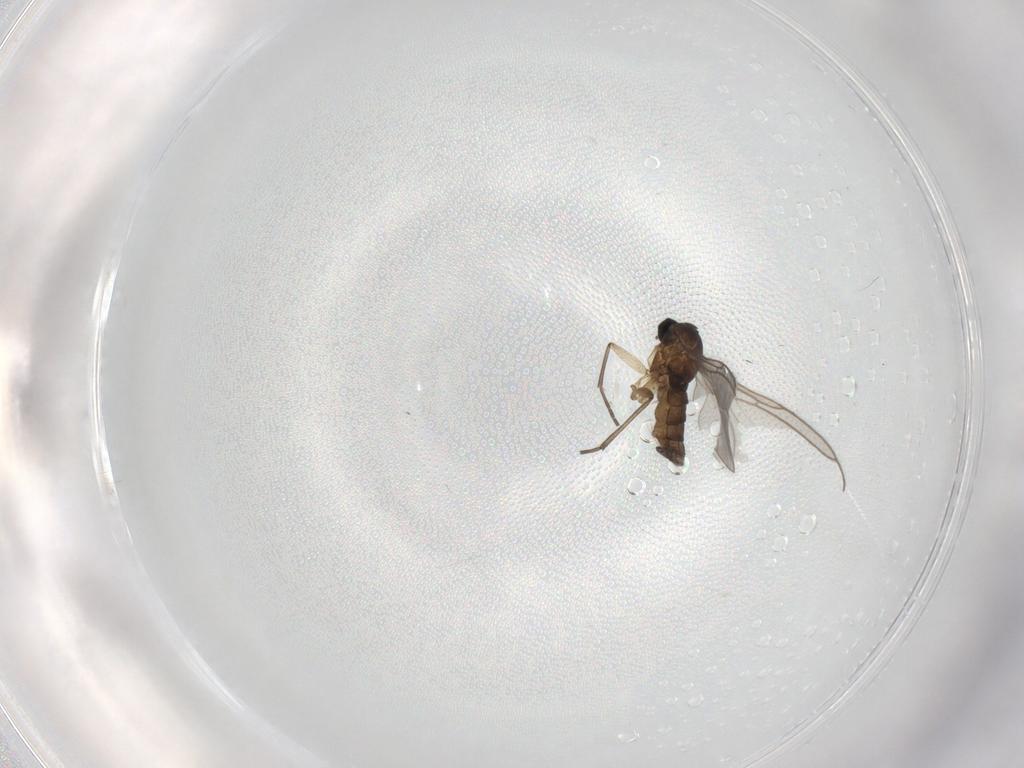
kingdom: Animalia
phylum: Arthropoda
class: Insecta
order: Diptera
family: Sciaridae
